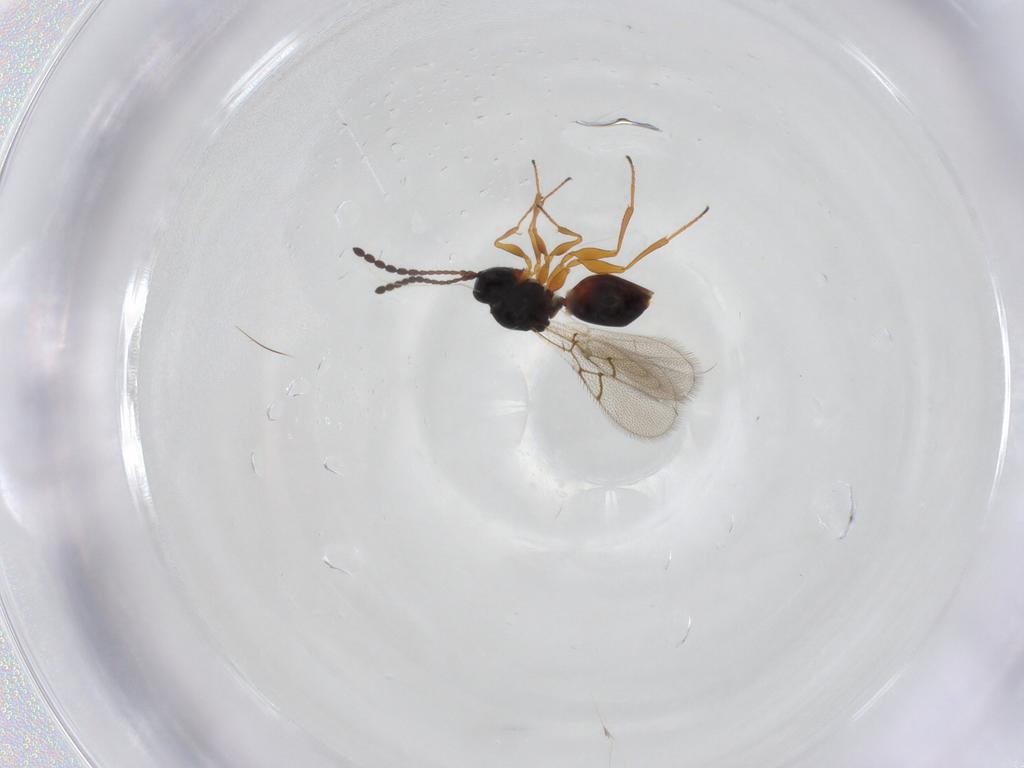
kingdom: Animalia
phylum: Arthropoda
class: Insecta
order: Hymenoptera
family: Figitidae
